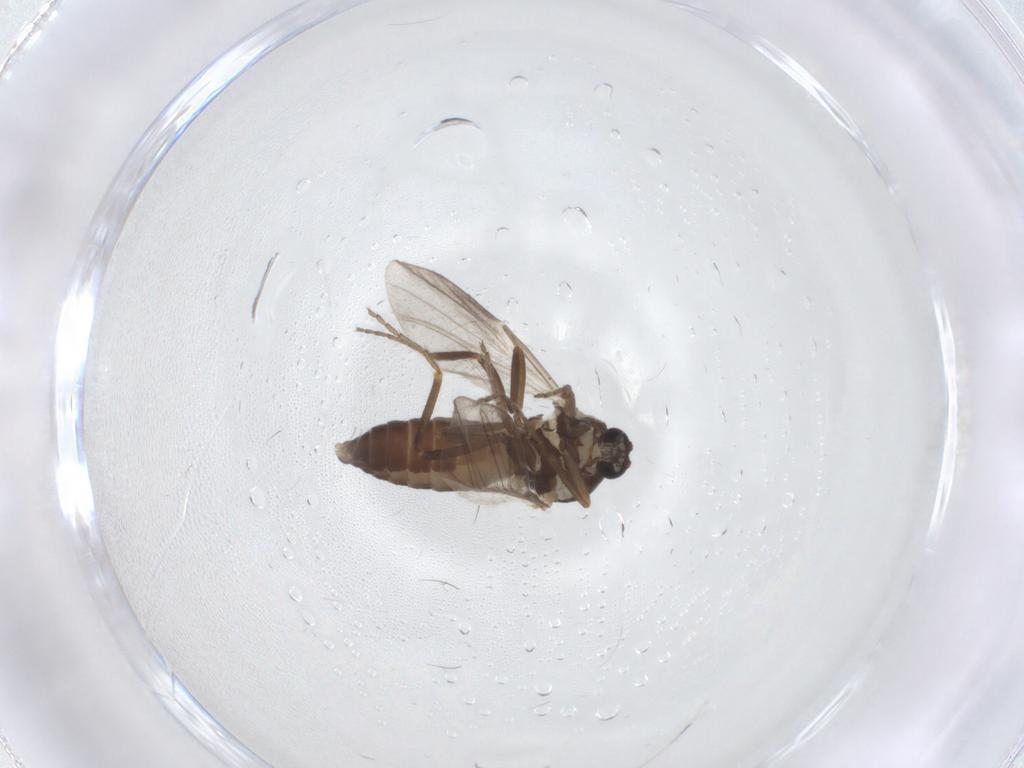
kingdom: Animalia
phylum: Arthropoda
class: Insecta
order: Diptera
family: Ceratopogonidae
